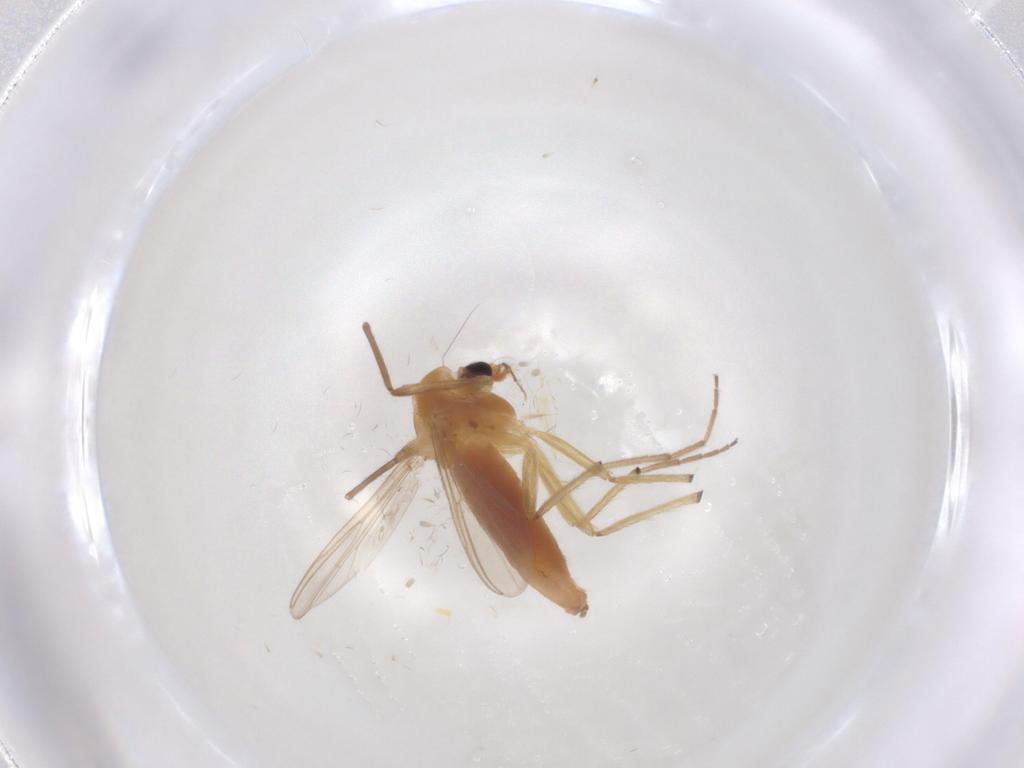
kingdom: Animalia
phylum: Arthropoda
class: Insecta
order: Diptera
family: Chironomidae
